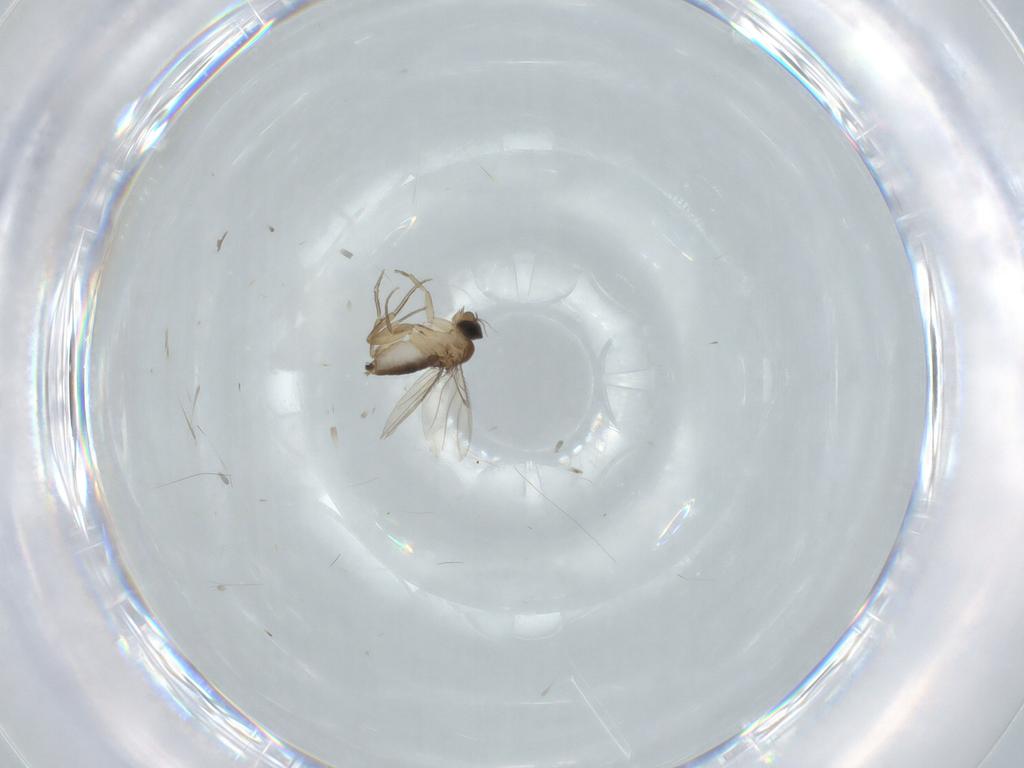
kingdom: Animalia
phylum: Arthropoda
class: Insecta
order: Diptera
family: Phoridae
